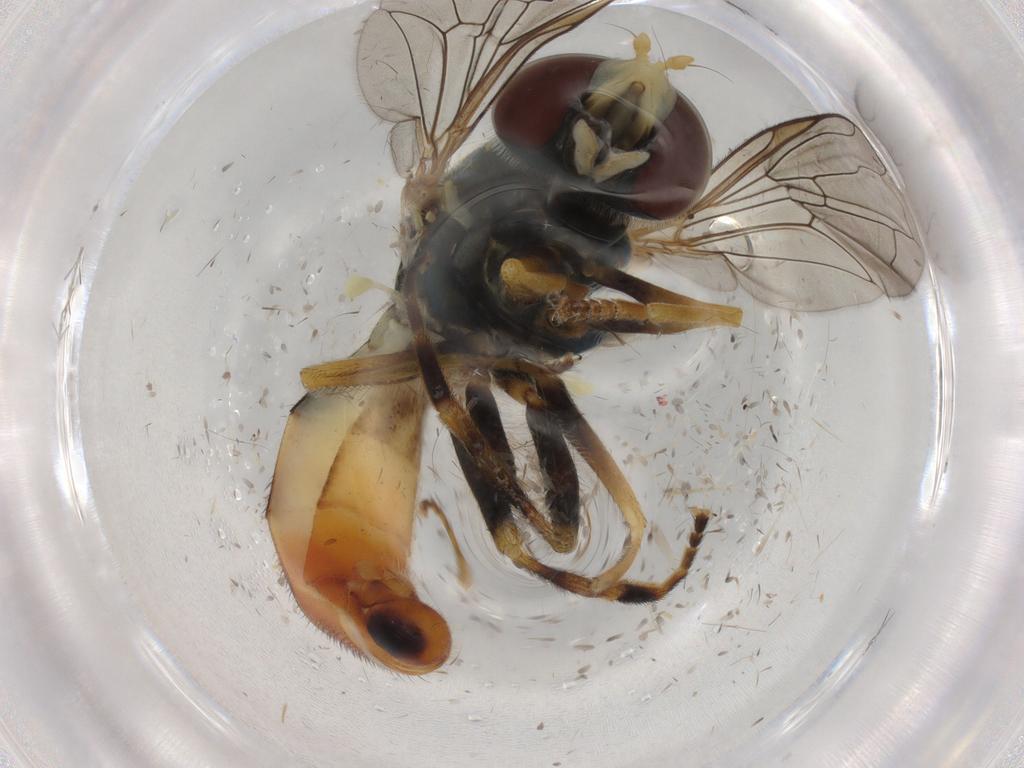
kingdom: Animalia
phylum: Arthropoda
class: Insecta
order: Diptera
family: Syrphidae
